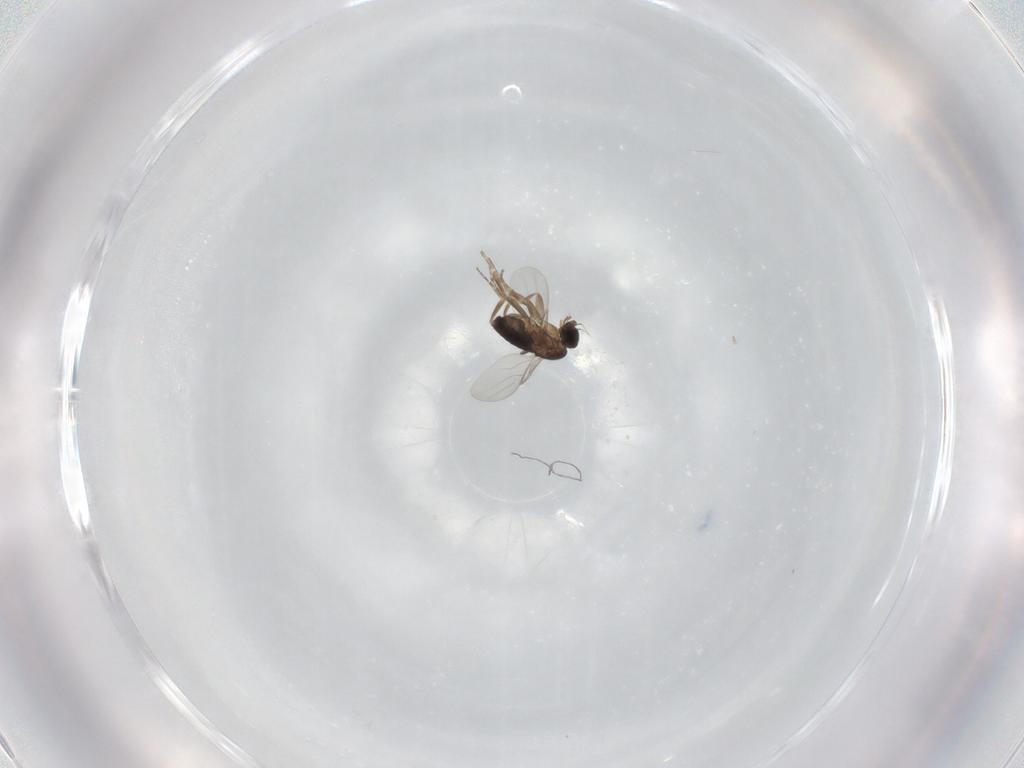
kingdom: Animalia
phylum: Arthropoda
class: Insecta
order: Diptera
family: Phoridae
